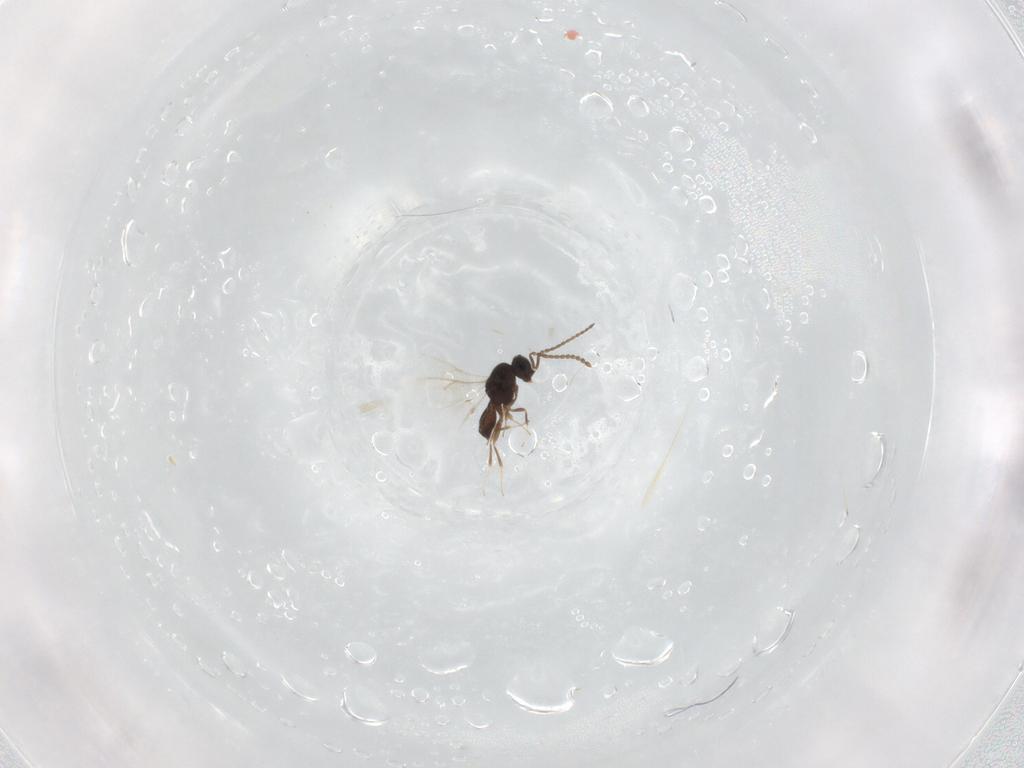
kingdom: Animalia
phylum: Arthropoda
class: Insecta
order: Hymenoptera
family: Scelionidae
